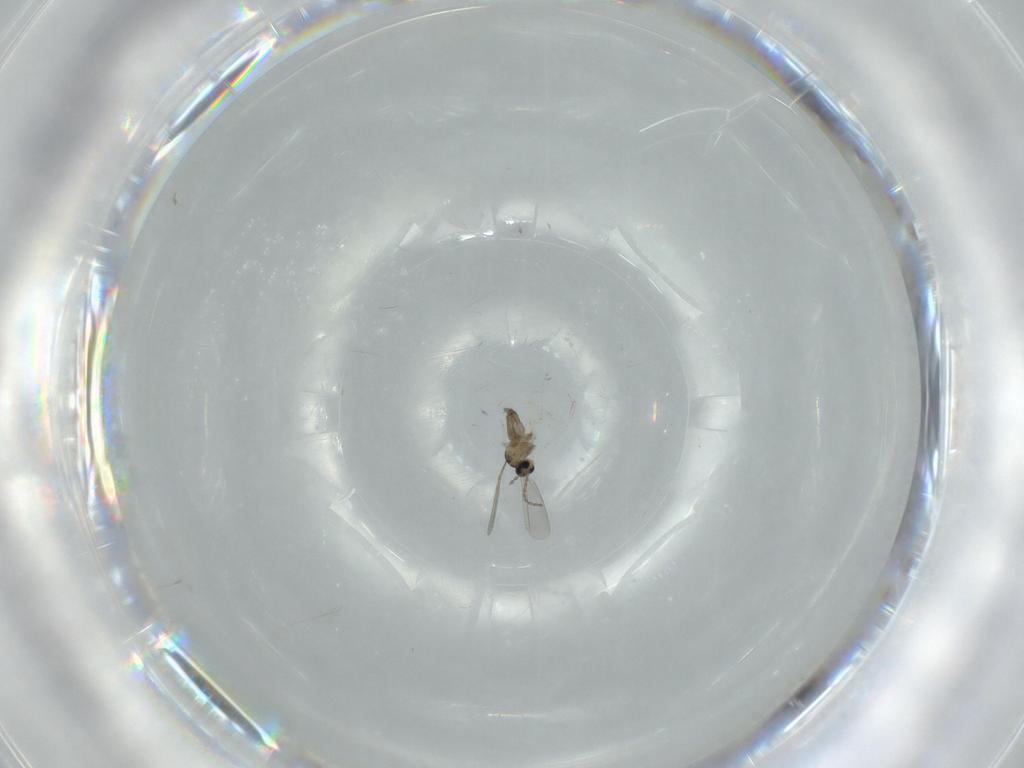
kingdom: Animalia
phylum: Arthropoda
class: Insecta
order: Diptera
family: Cecidomyiidae
